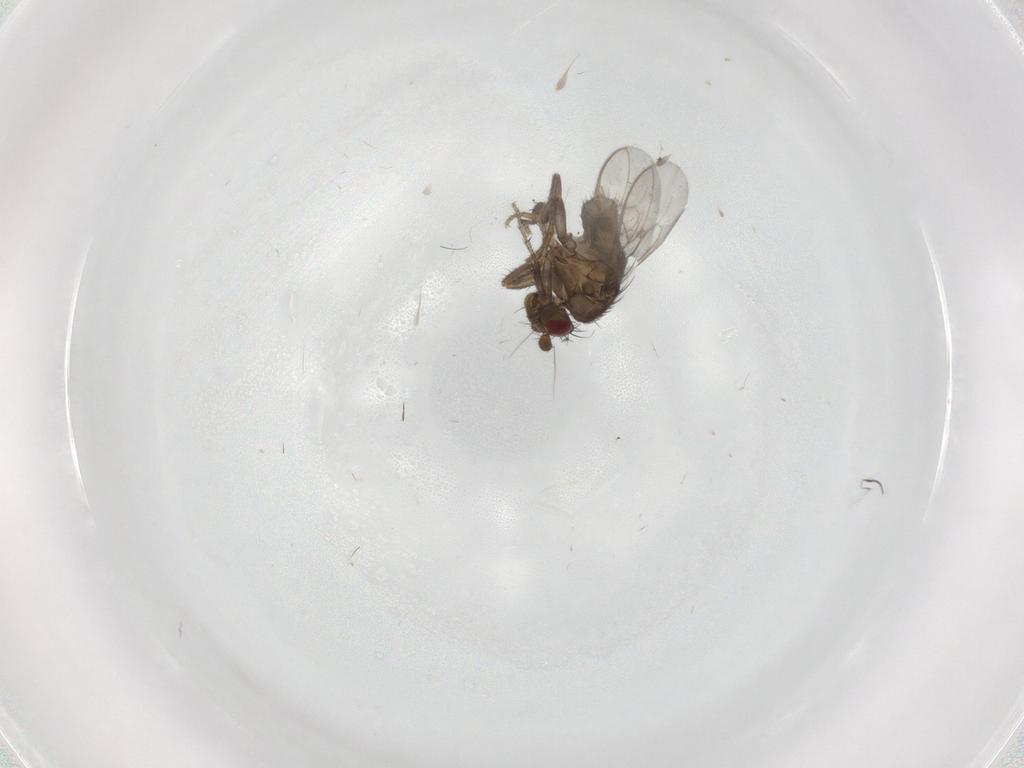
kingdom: Animalia
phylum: Arthropoda
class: Insecta
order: Diptera
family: Sphaeroceridae
